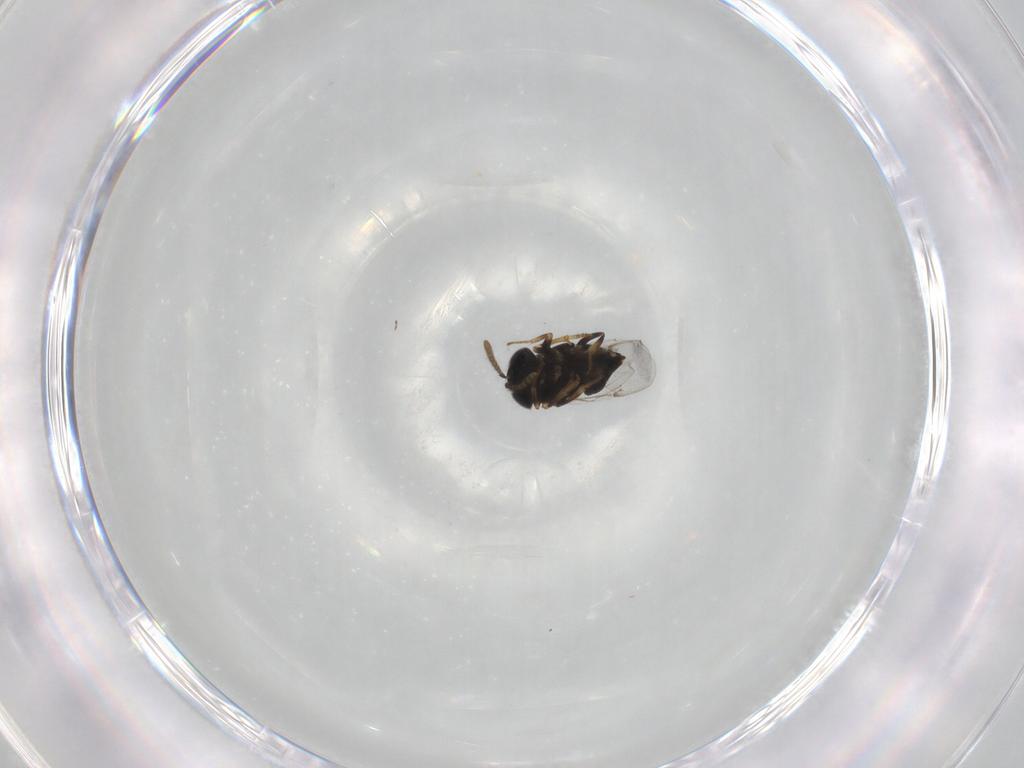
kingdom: Animalia
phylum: Arthropoda
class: Insecta
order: Diptera
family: Sciaridae
